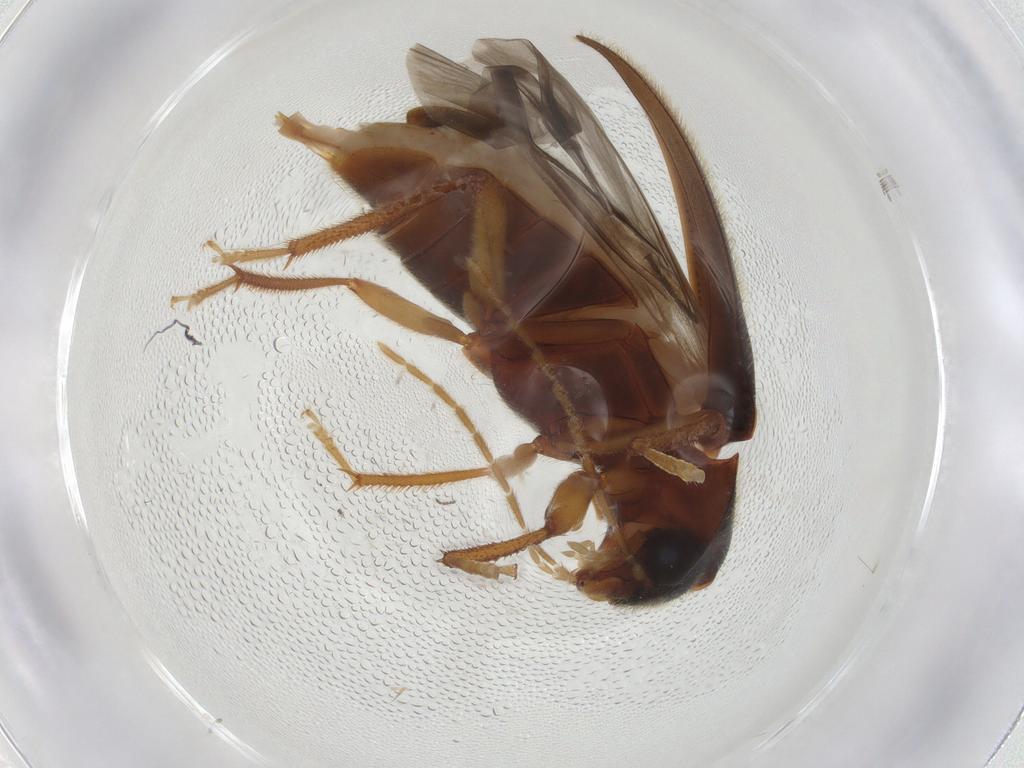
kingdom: Animalia
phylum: Arthropoda
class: Insecta
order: Coleoptera
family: Ptilodactylidae
